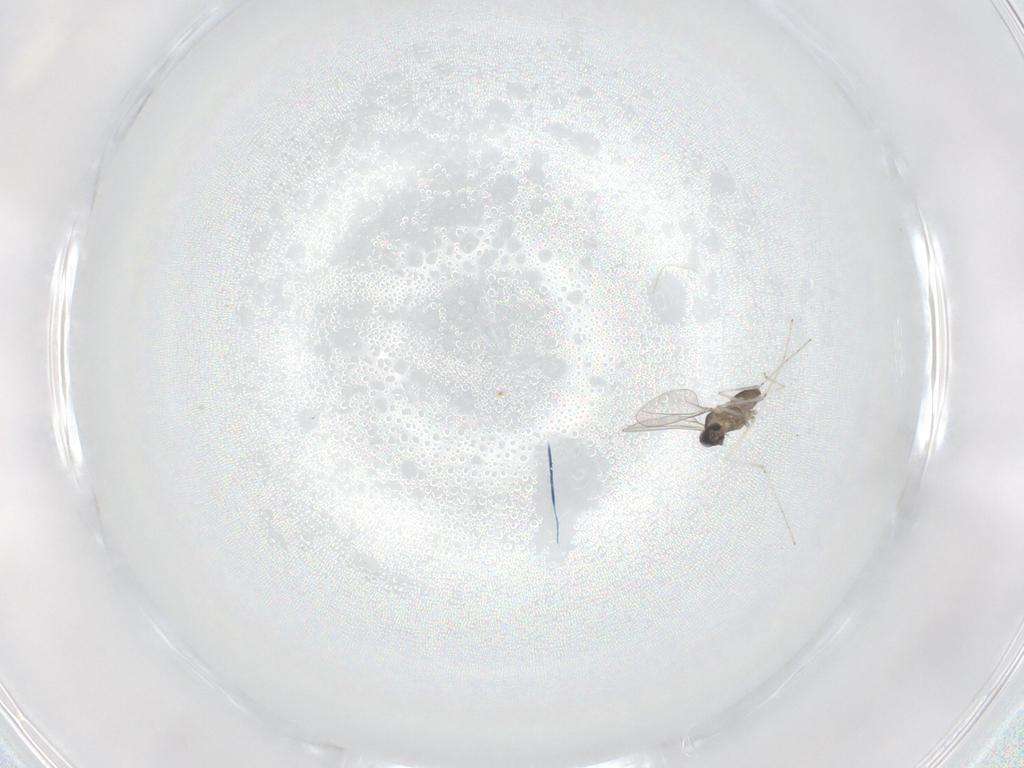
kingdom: Animalia
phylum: Arthropoda
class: Insecta
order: Diptera
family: Cecidomyiidae
